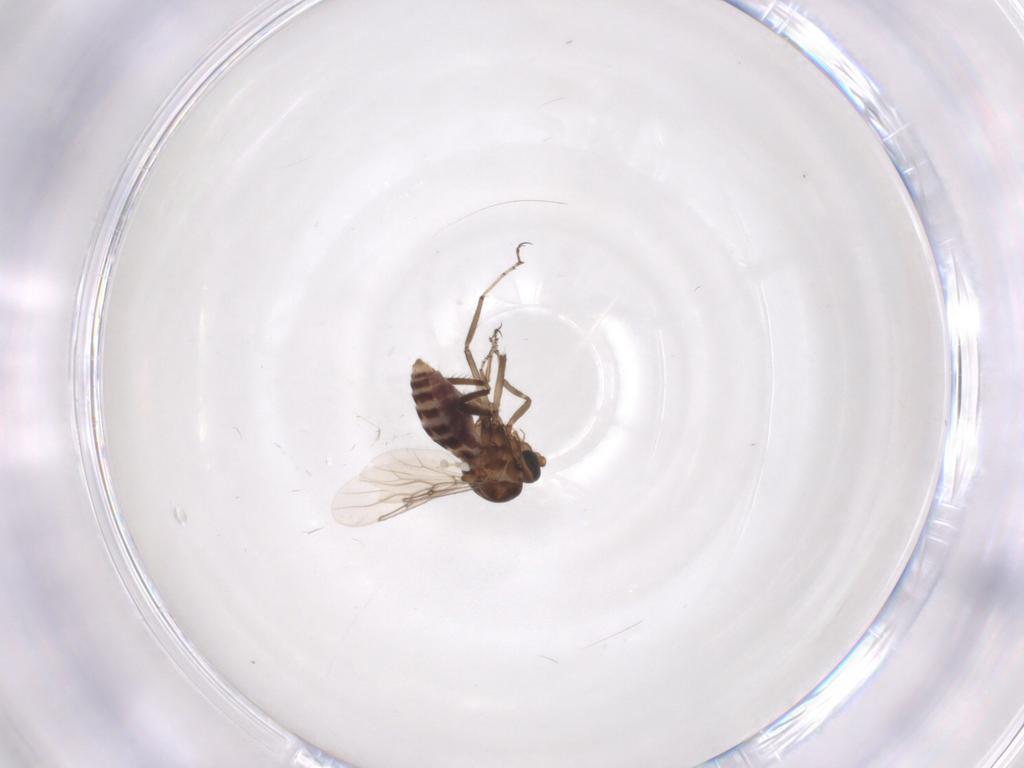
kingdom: Animalia
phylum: Arthropoda
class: Insecta
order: Diptera
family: Ceratopogonidae
